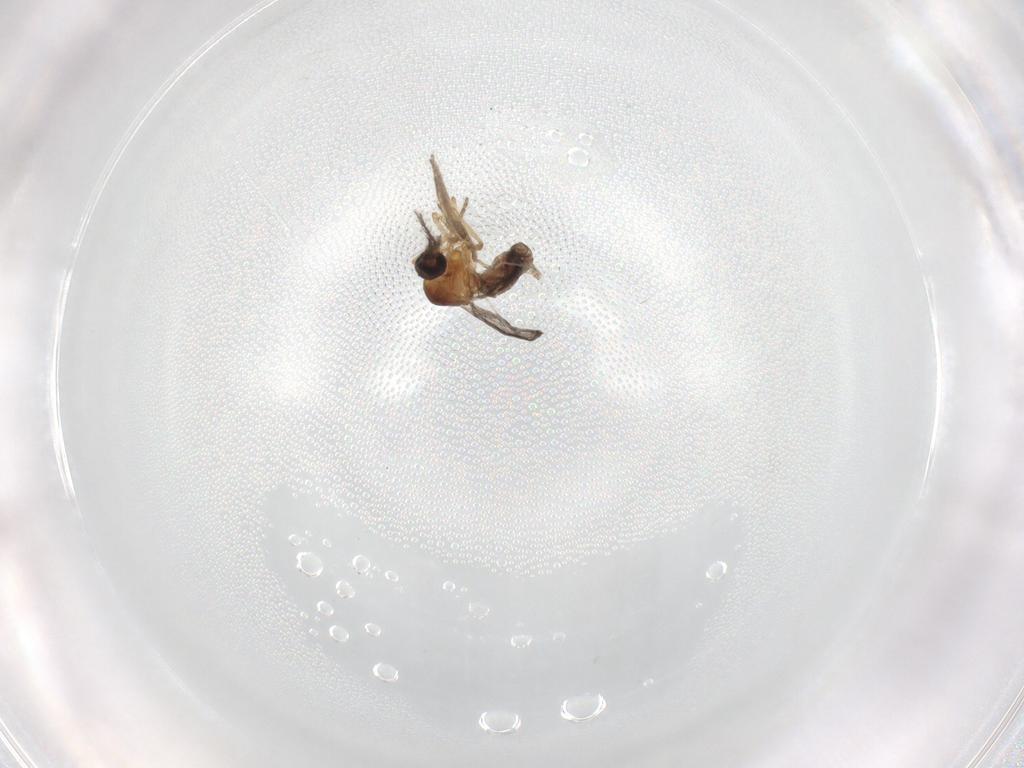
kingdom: Animalia
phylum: Arthropoda
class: Insecta
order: Diptera
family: Chironomidae
